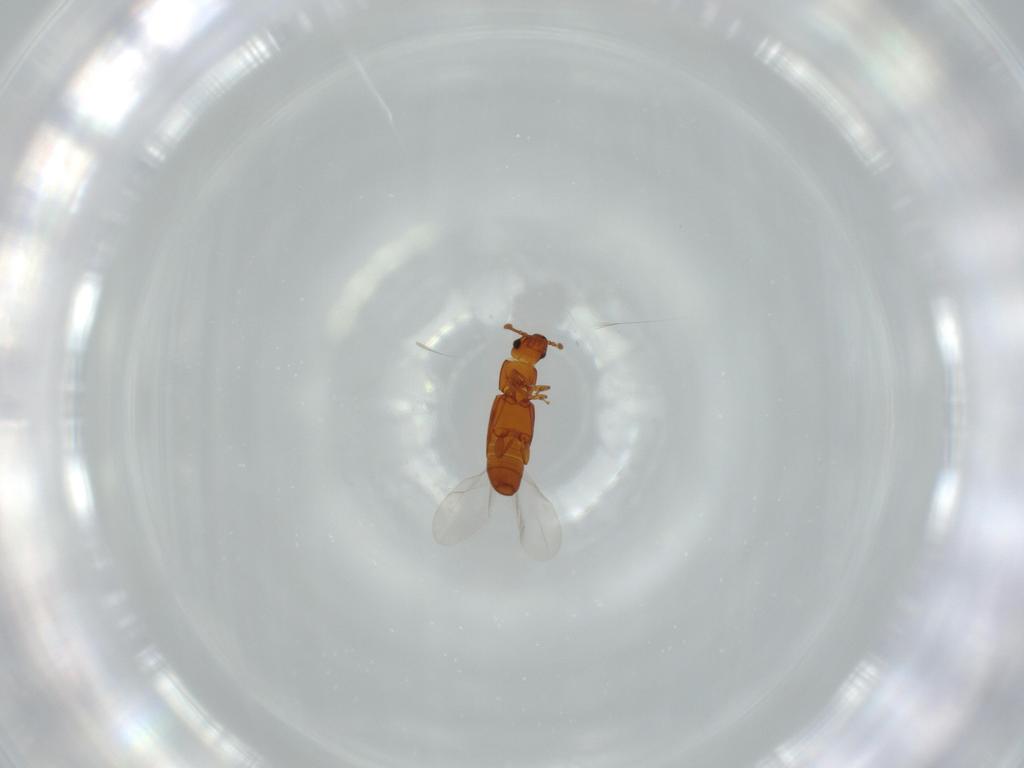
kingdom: Animalia
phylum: Arthropoda
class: Insecta
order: Coleoptera
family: Smicripidae
